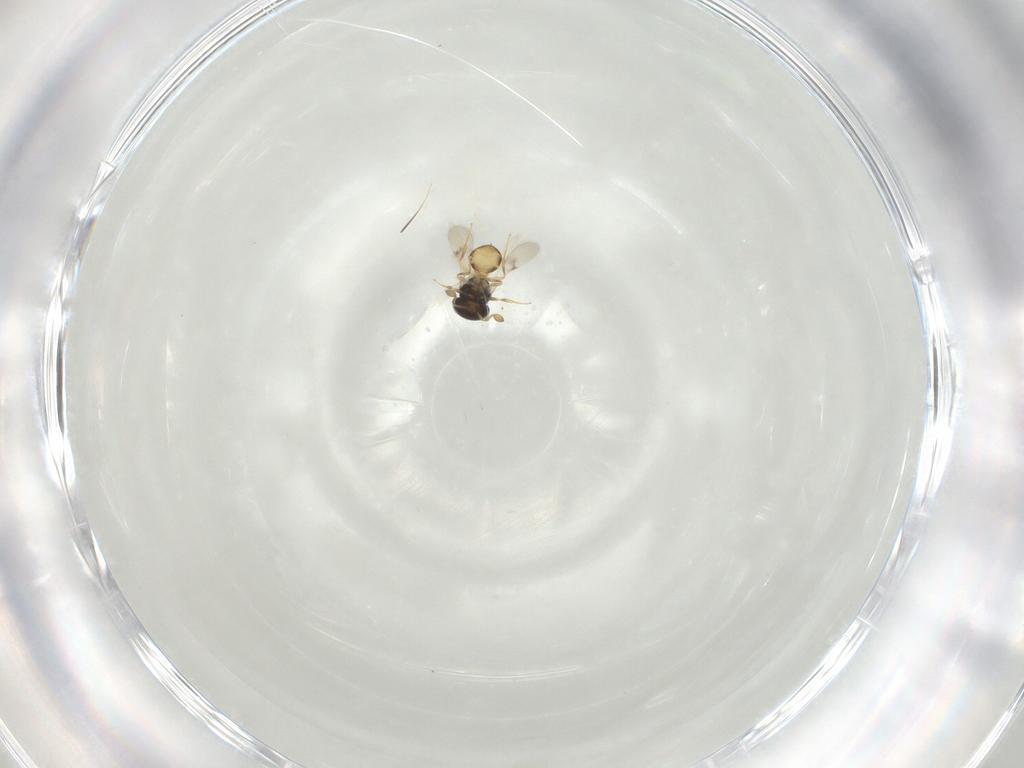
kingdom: Animalia
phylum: Arthropoda
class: Insecta
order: Hymenoptera
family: Scelionidae
